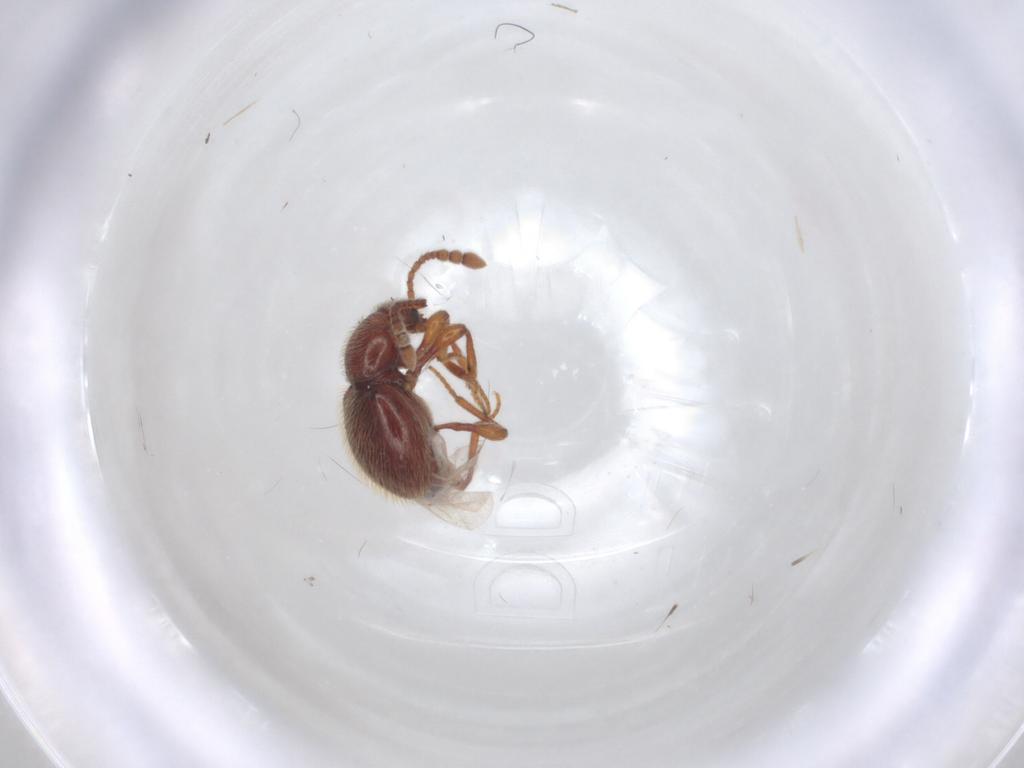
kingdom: Animalia
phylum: Arthropoda
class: Insecta
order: Coleoptera
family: Staphylinidae
